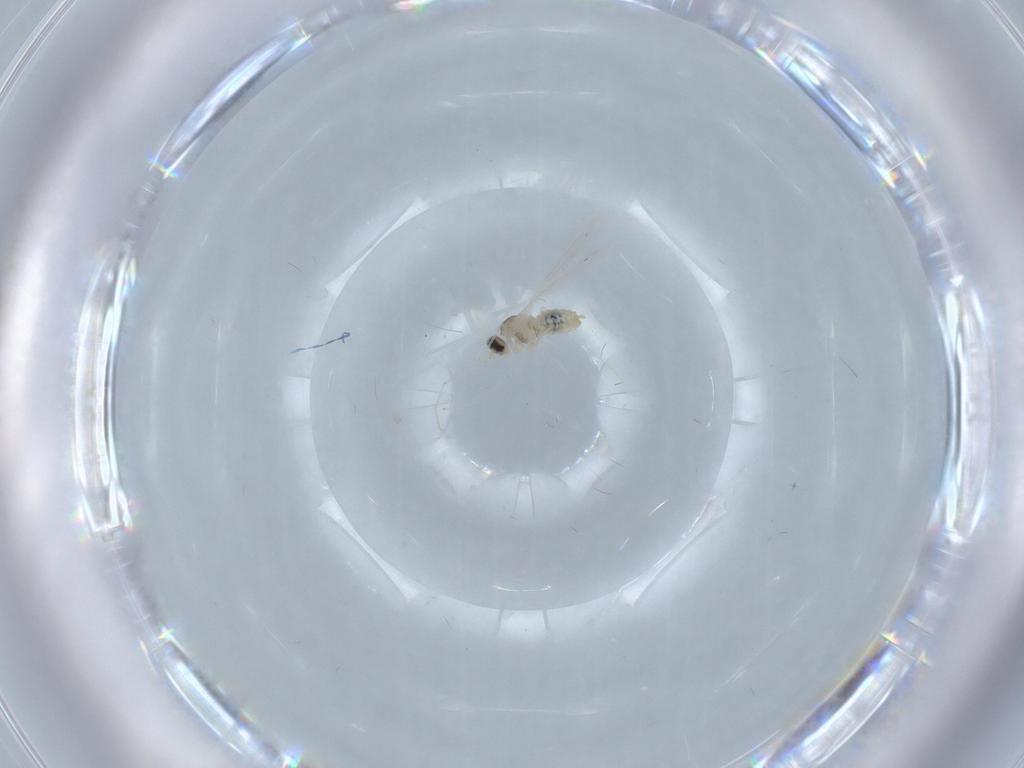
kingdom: Animalia
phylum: Arthropoda
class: Insecta
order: Diptera
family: Cecidomyiidae
